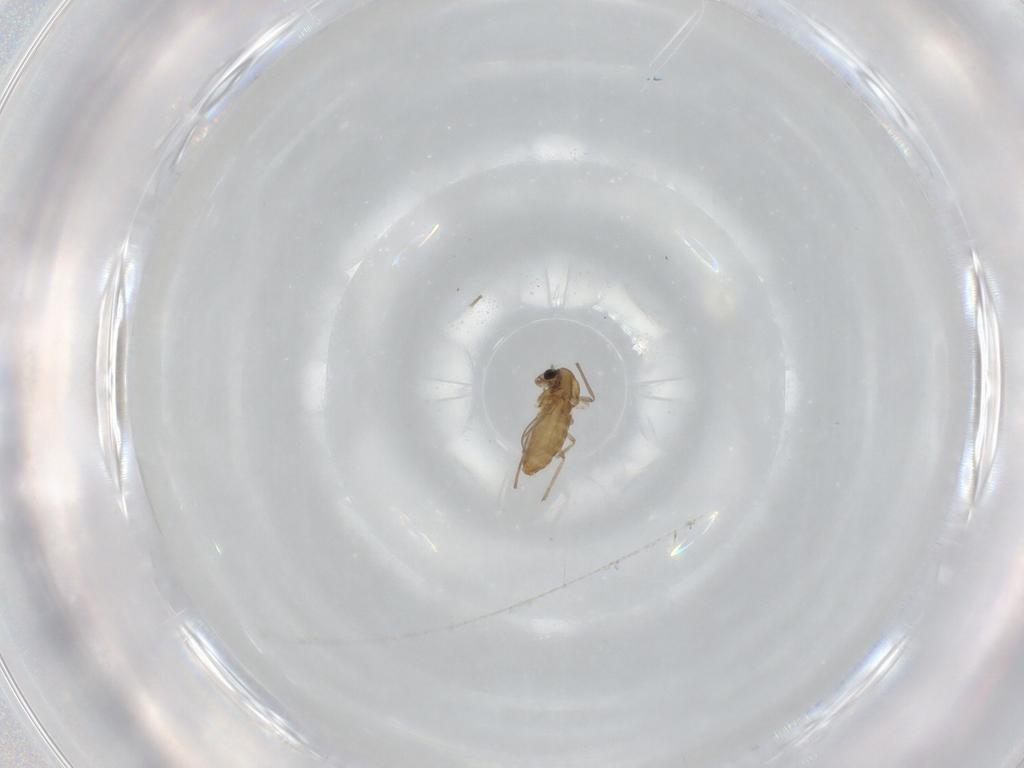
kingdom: Animalia
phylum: Arthropoda
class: Insecta
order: Diptera
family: Chironomidae
